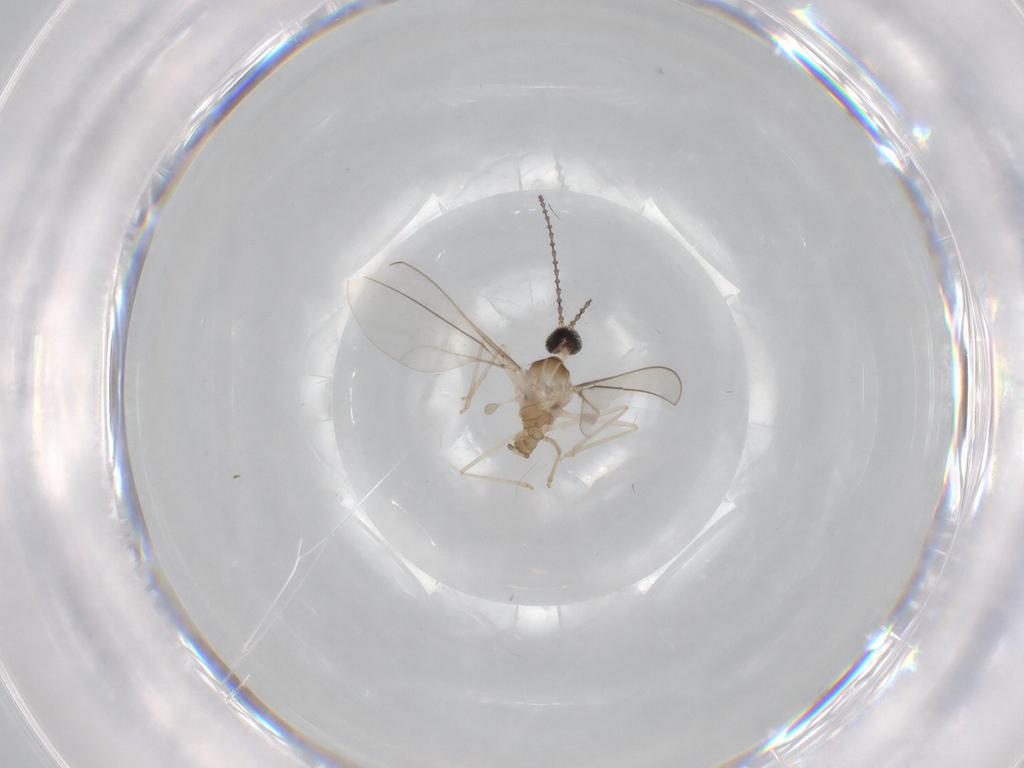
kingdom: Animalia
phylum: Arthropoda
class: Insecta
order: Diptera
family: Cecidomyiidae
